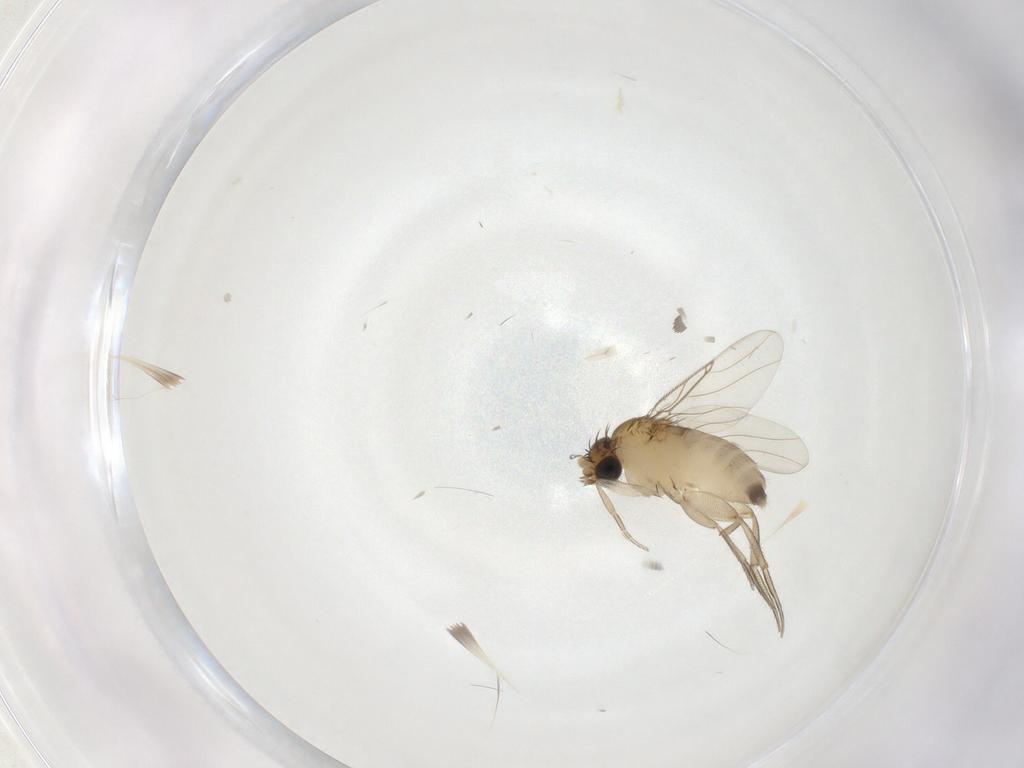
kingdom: Animalia
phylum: Arthropoda
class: Insecta
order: Diptera
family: Phoridae
